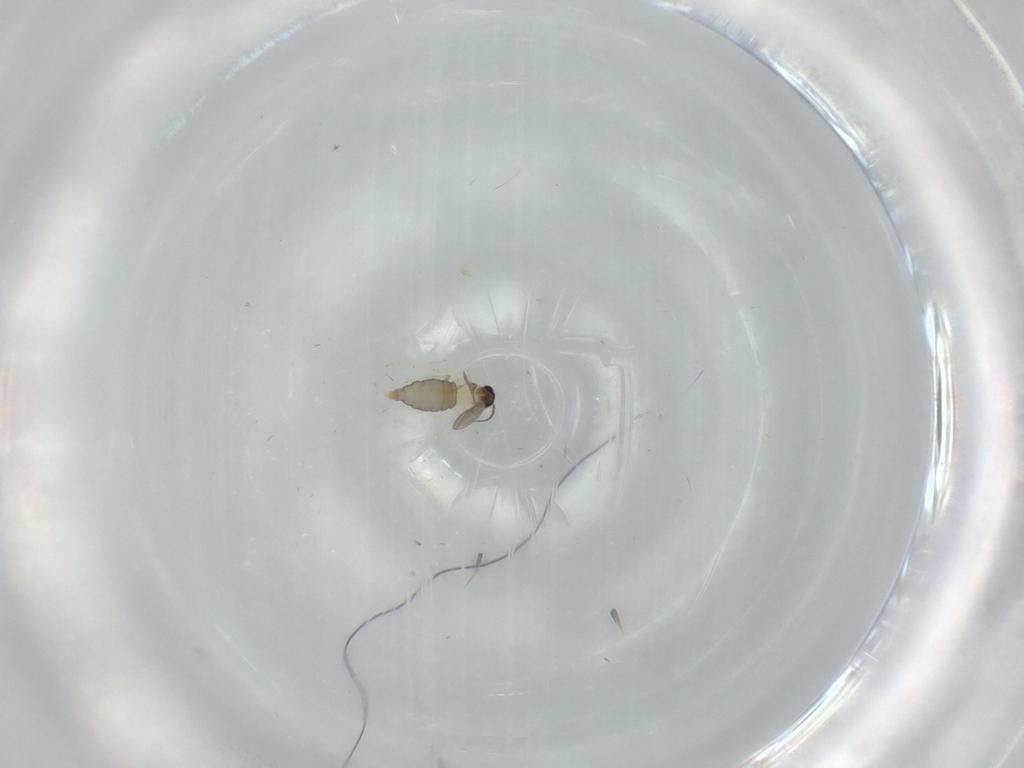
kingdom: Animalia
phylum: Arthropoda
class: Insecta
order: Diptera
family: Cecidomyiidae
